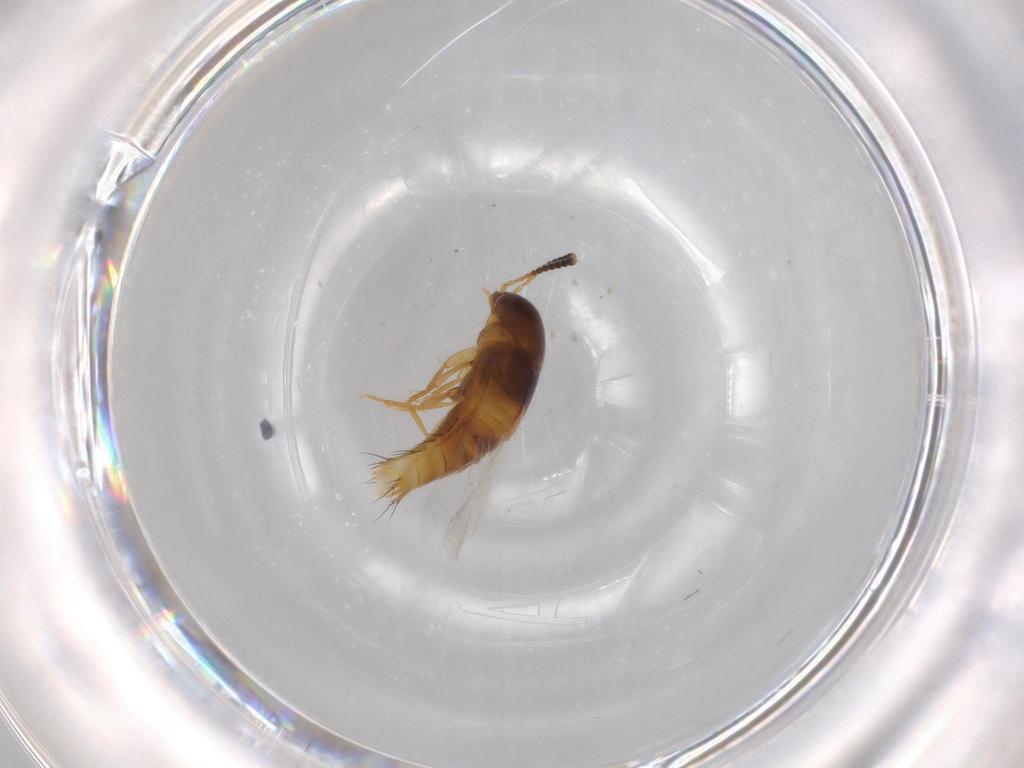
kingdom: Animalia
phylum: Arthropoda
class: Insecta
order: Coleoptera
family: Staphylinidae
